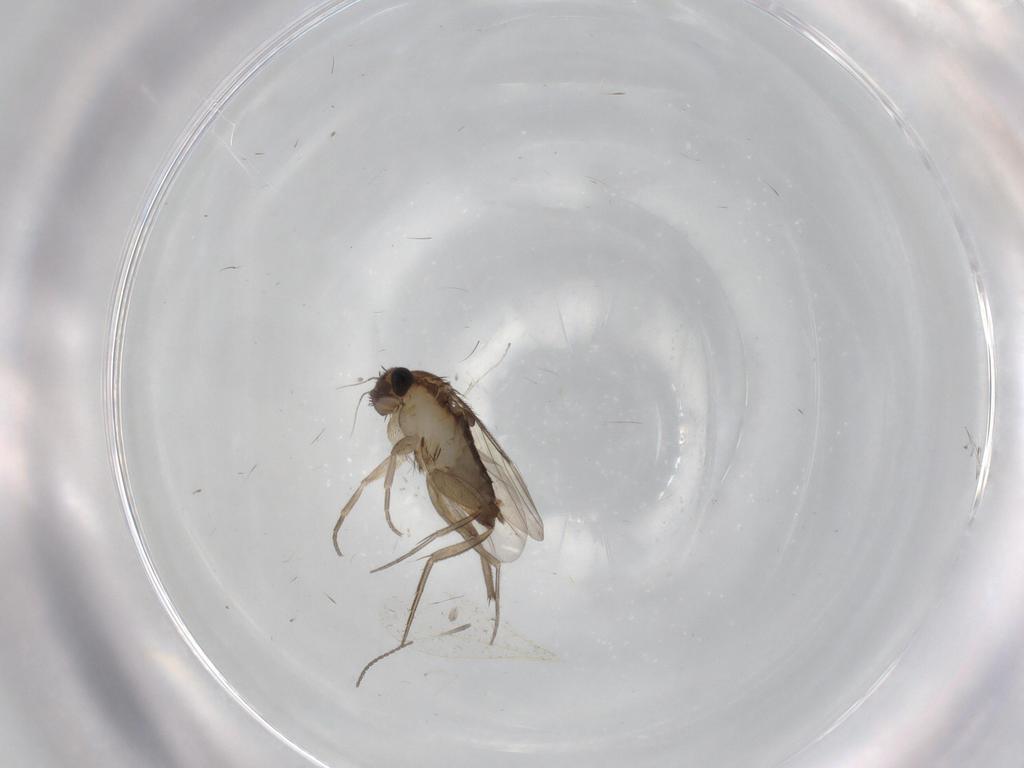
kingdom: Animalia
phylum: Arthropoda
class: Insecta
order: Diptera
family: Phoridae
